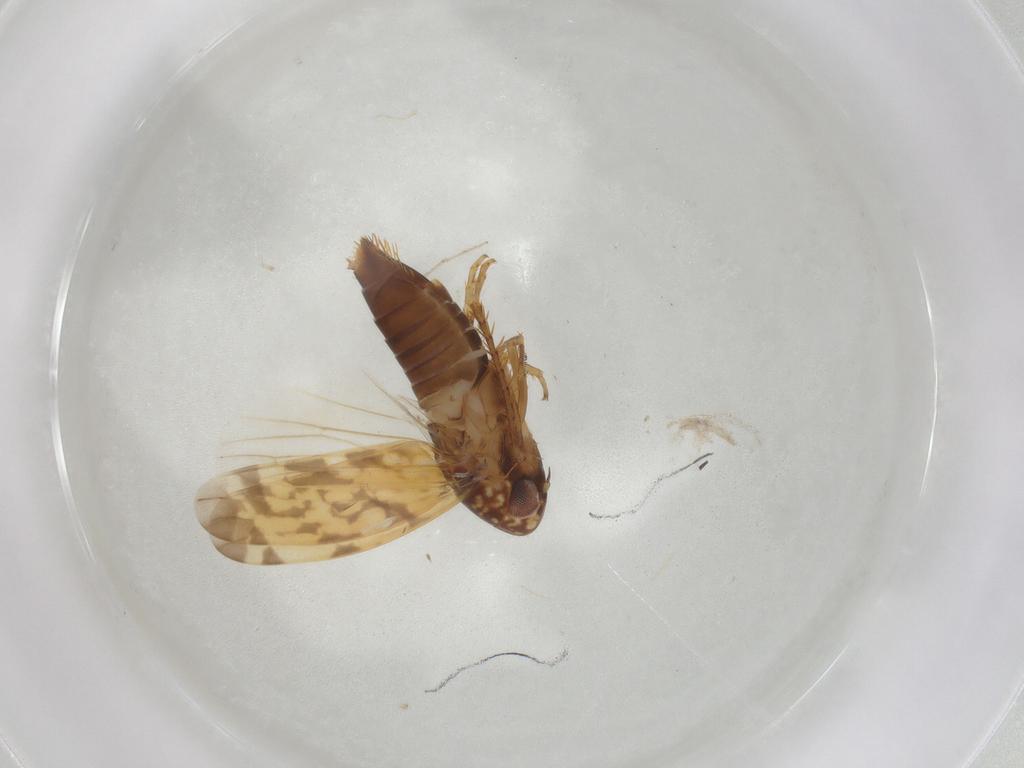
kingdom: Animalia
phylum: Arthropoda
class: Insecta
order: Hemiptera
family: Cicadellidae
